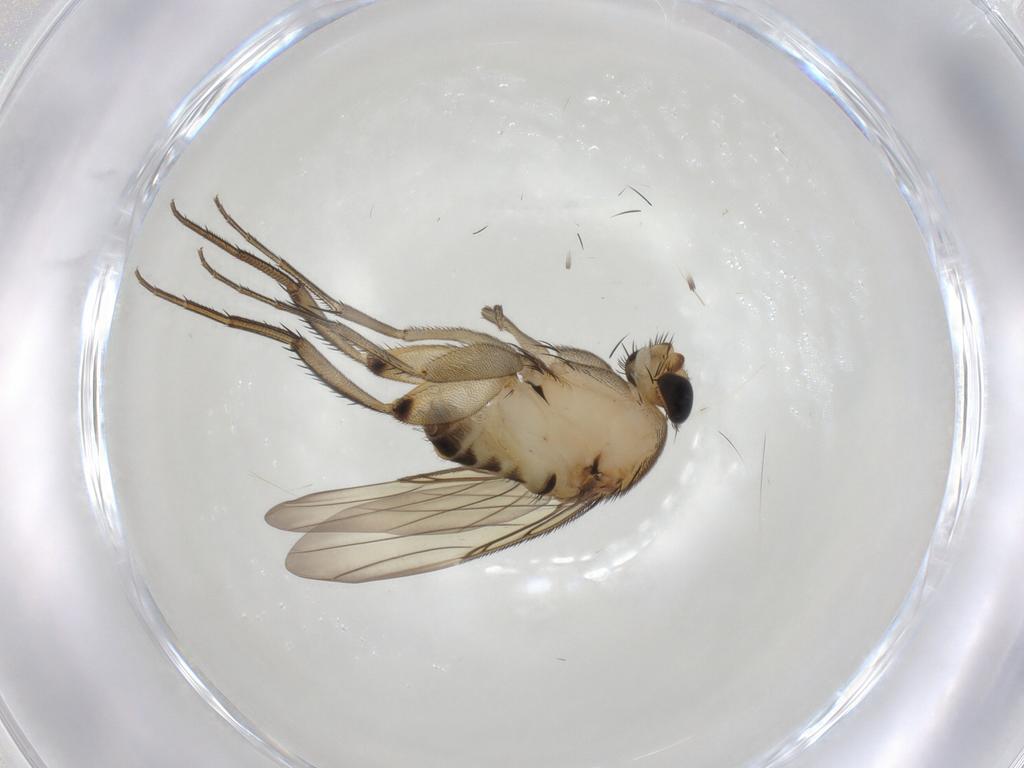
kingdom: Animalia
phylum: Arthropoda
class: Insecta
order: Diptera
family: Phoridae
